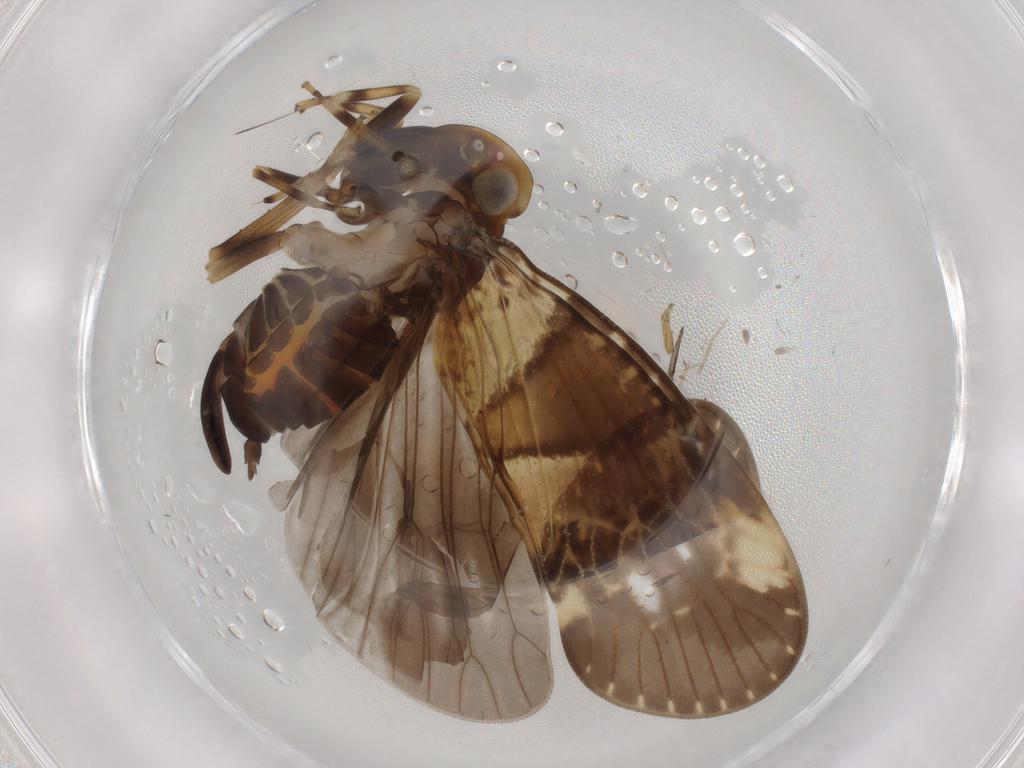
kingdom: Animalia
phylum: Arthropoda
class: Insecta
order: Hemiptera
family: Cixiidae
